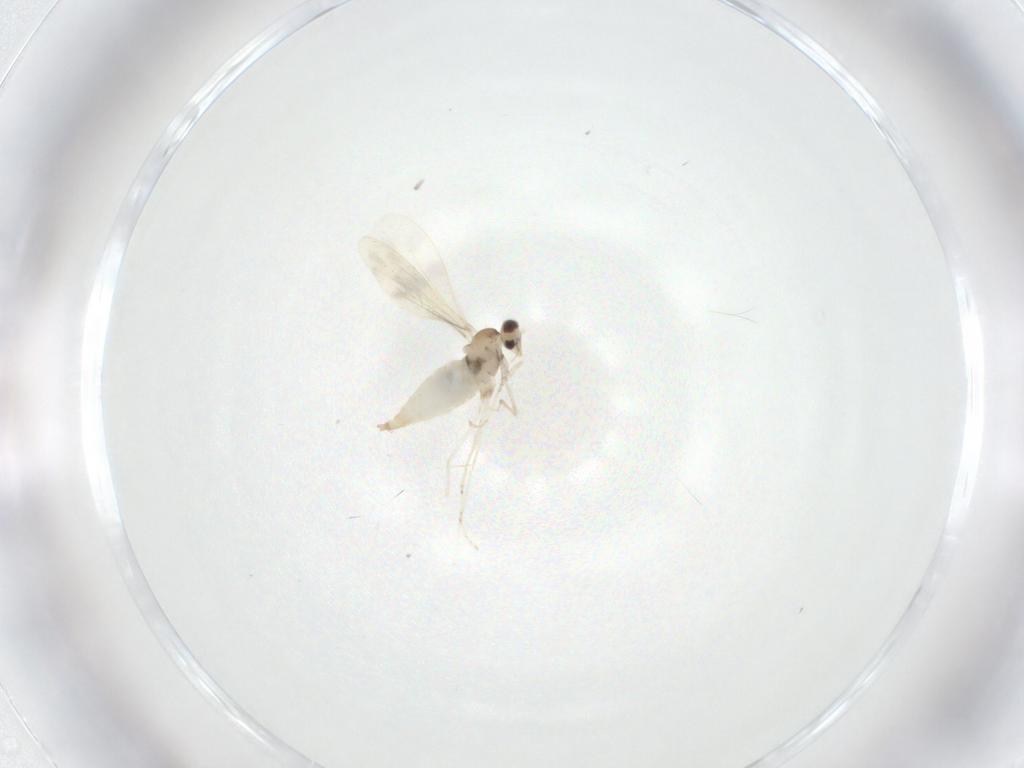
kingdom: Animalia
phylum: Arthropoda
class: Insecta
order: Diptera
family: Cecidomyiidae
